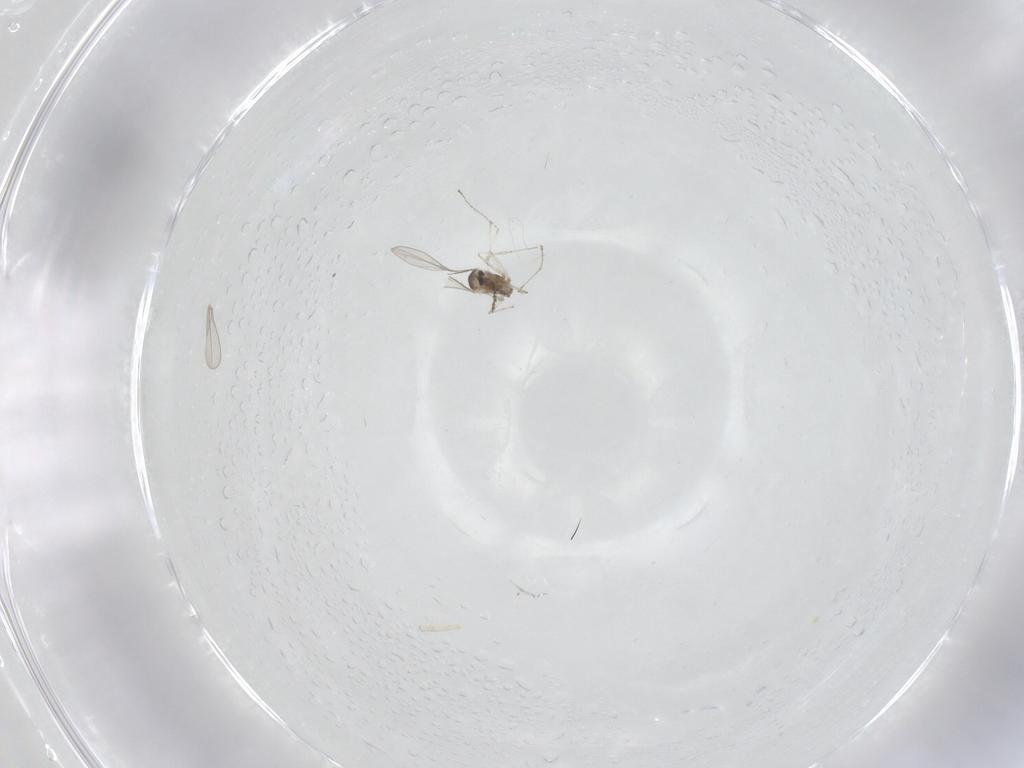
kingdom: Animalia
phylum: Arthropoda
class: Insecta
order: Diptera
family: Cecidomyiidae
